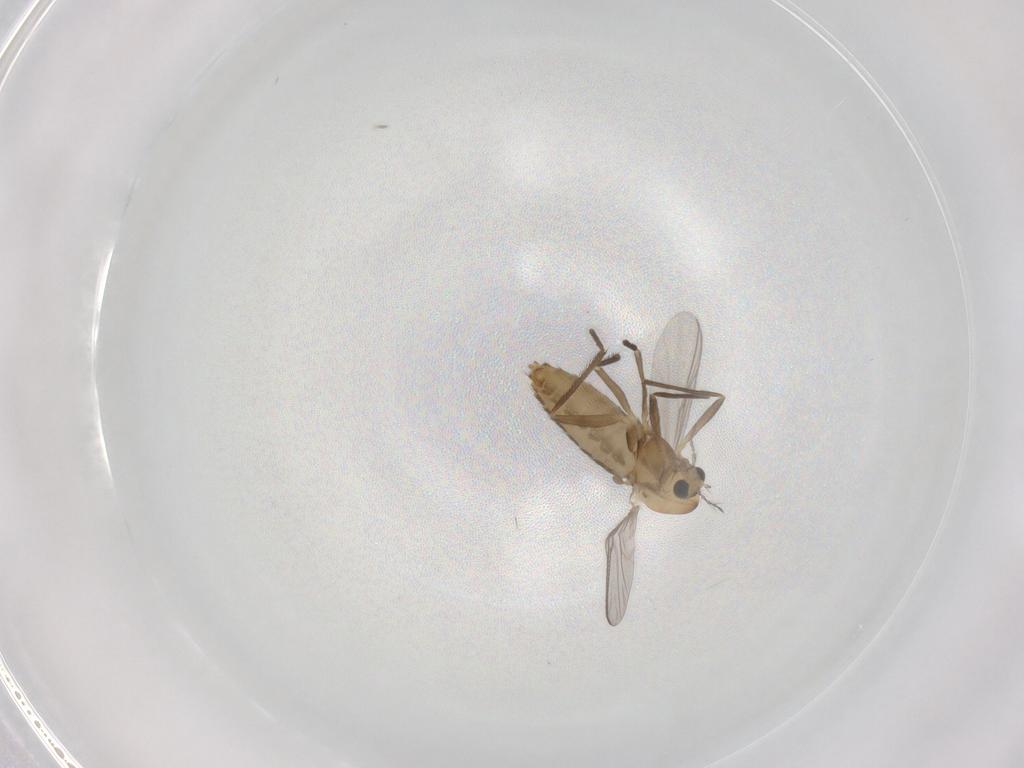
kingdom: Animalia
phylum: Arthropoda
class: Insecta
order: Diptera
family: Chironomidae
